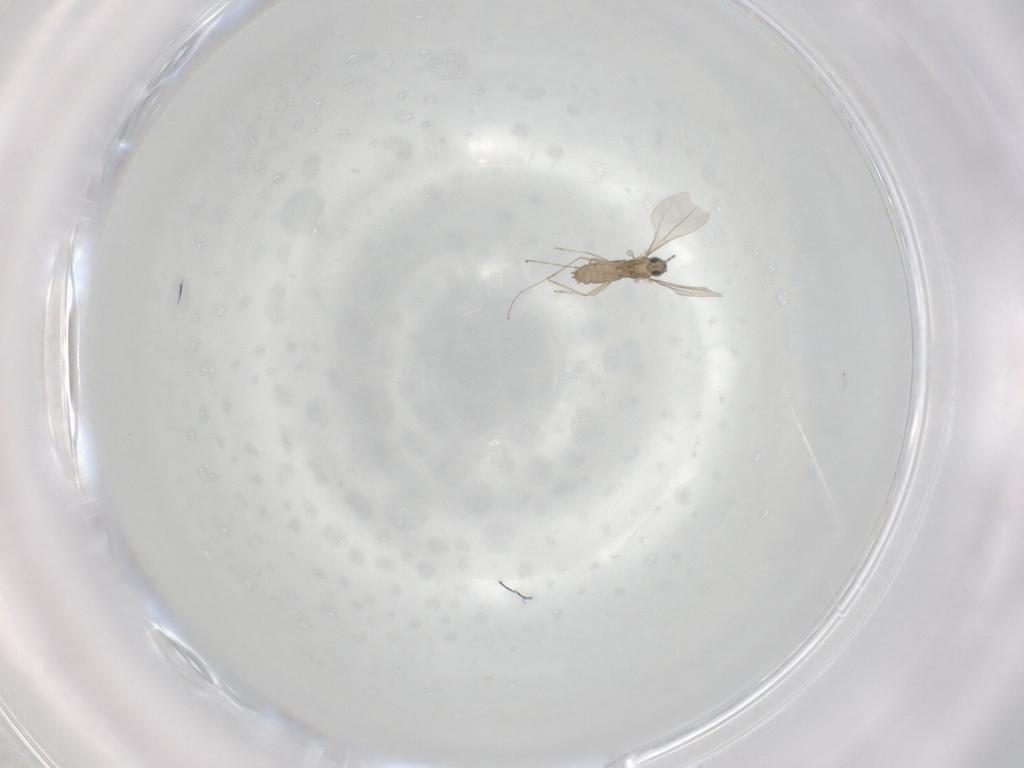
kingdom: Animalia
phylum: Arthropoda
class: Insecta
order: Diptera
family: Cecidomyiidae
